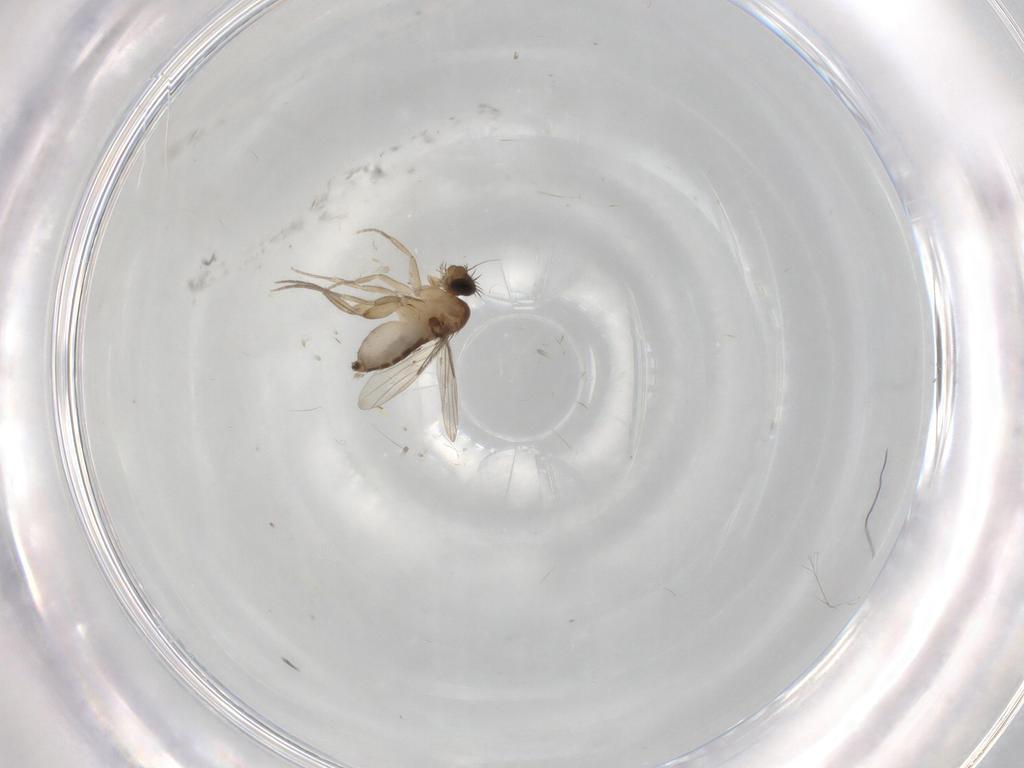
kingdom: Animalia
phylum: Arthropoda
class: Insecta
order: Diptera
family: Phoridae
